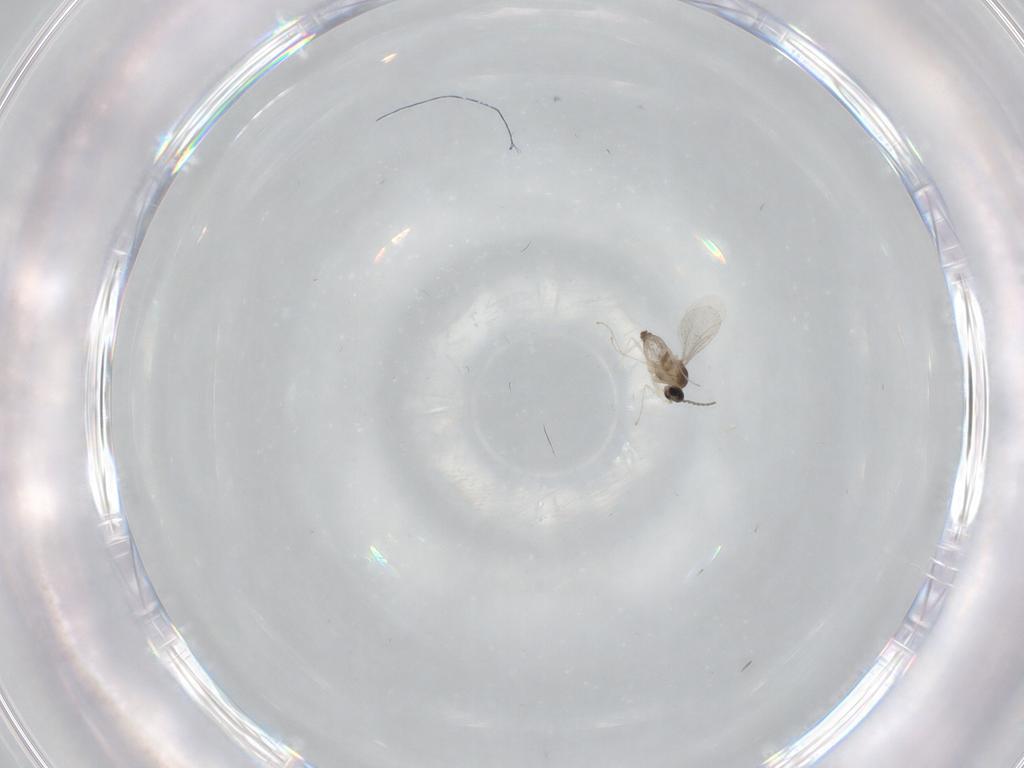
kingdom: Animalia
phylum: Arthropoda
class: Insecta
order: Diptera
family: Cecidomyiidae
